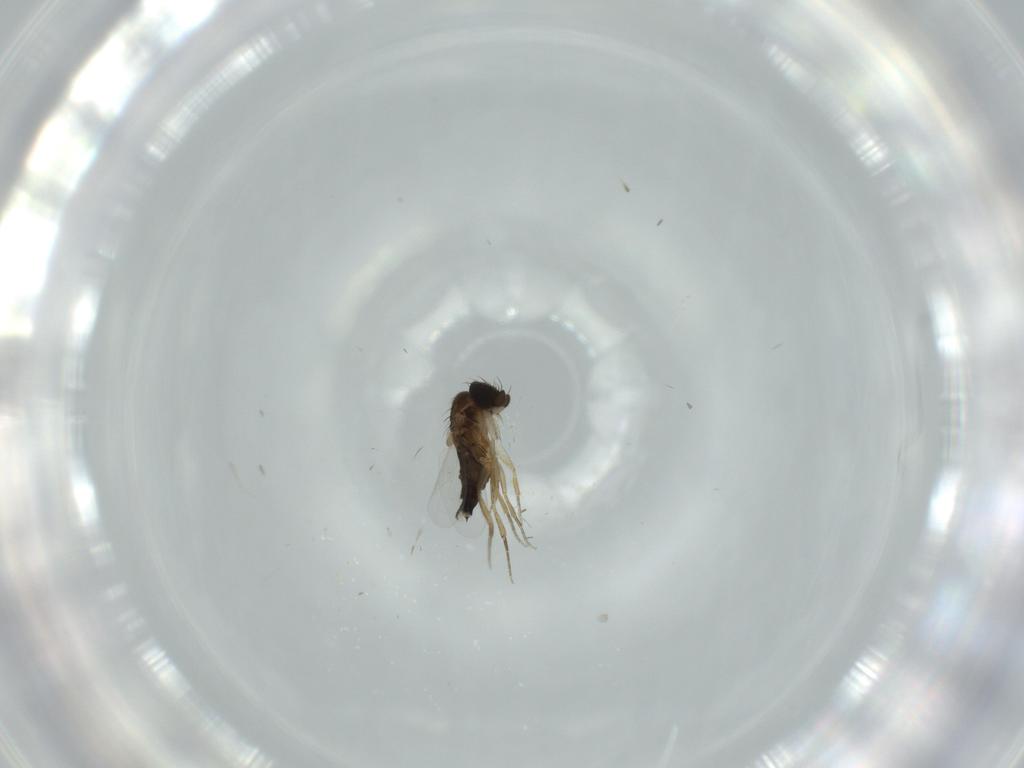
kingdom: Animalia
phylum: Arthropoda
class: Insecta
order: Diptera
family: Phoridae
